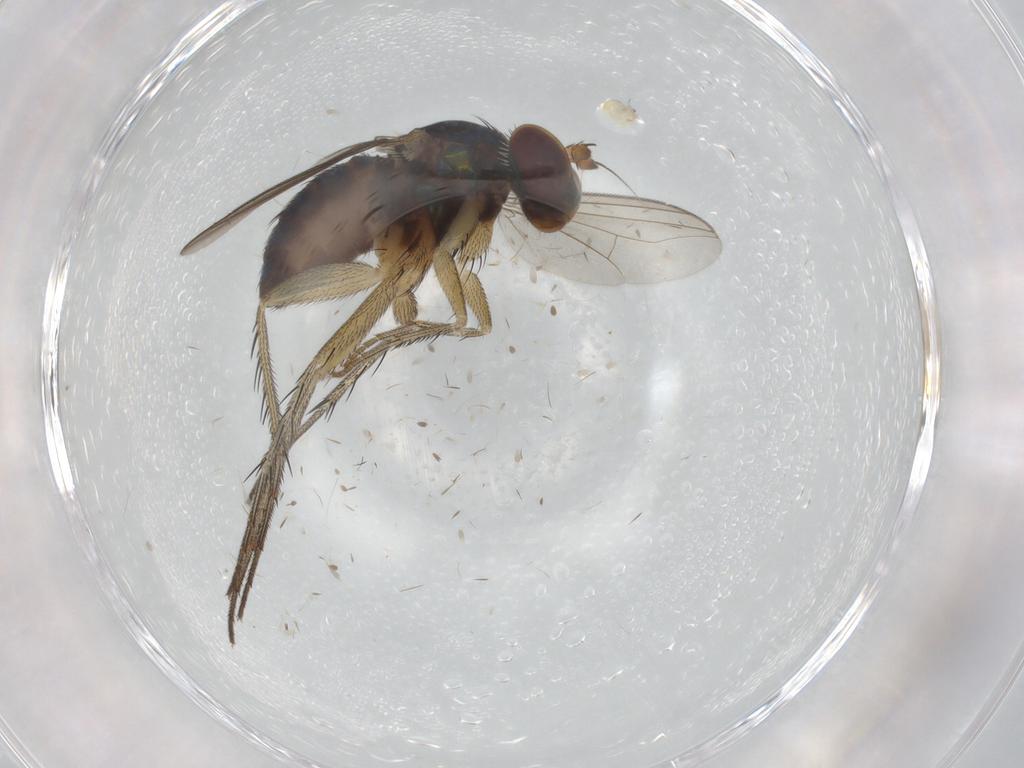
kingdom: Animalia
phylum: Arthropoda
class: Insecta
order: Diptera
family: Dolichopodidae
